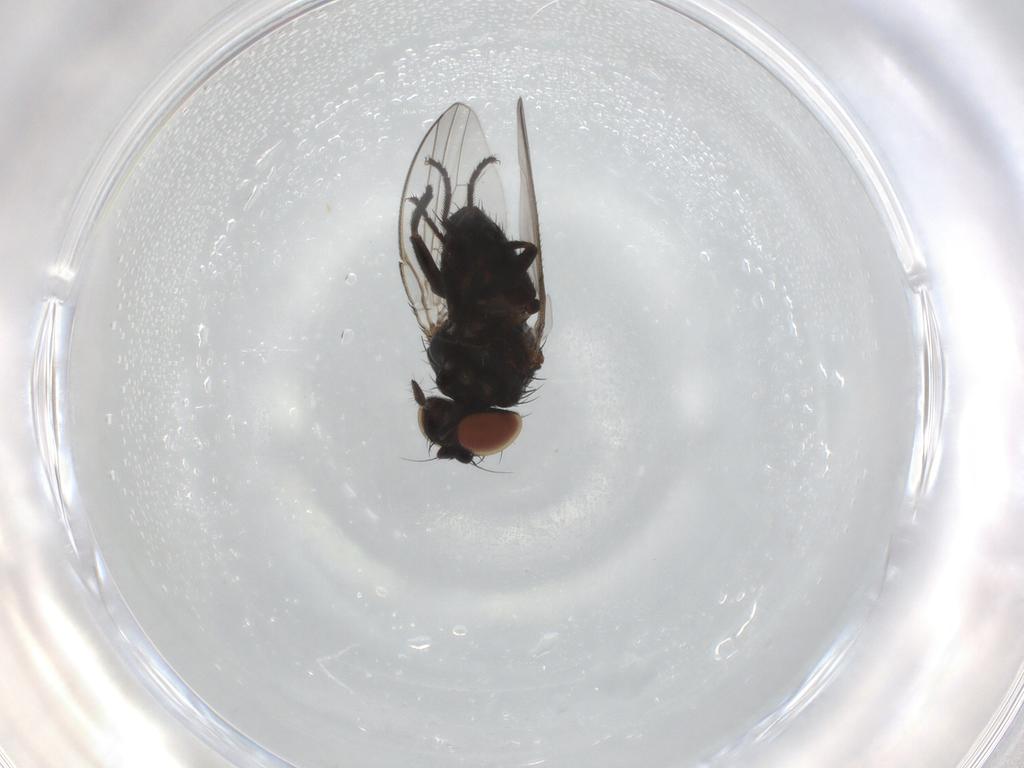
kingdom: Animalia
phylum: Arthropoda
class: Insecta
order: Diptera
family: Milichiidae
